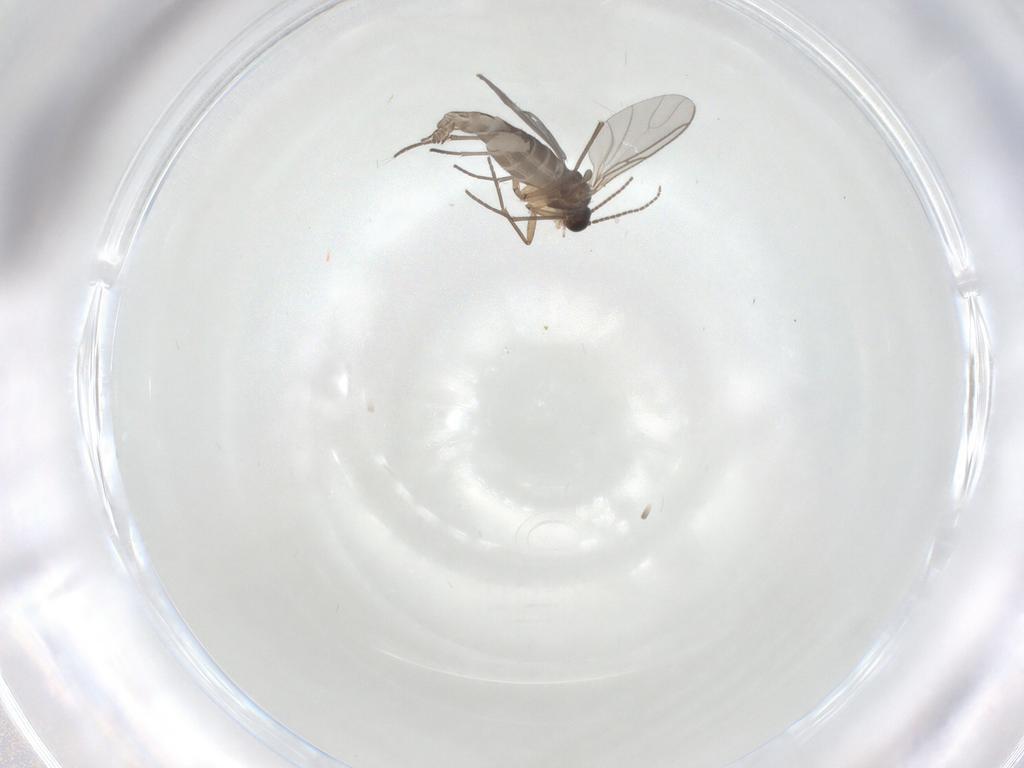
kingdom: Animalia
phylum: Arthropoda
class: Insecta
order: Diptera
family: Sciaridae
